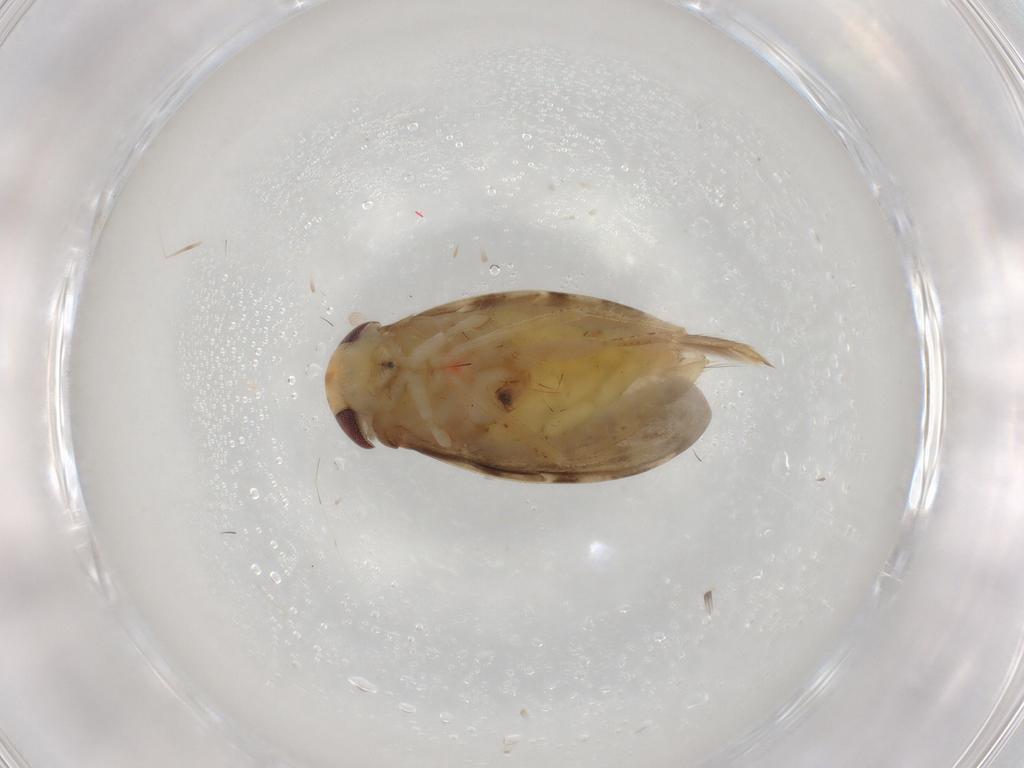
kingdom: Animalia
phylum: Arthropoda
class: Insecta
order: Hemiptera
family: Corixidae
